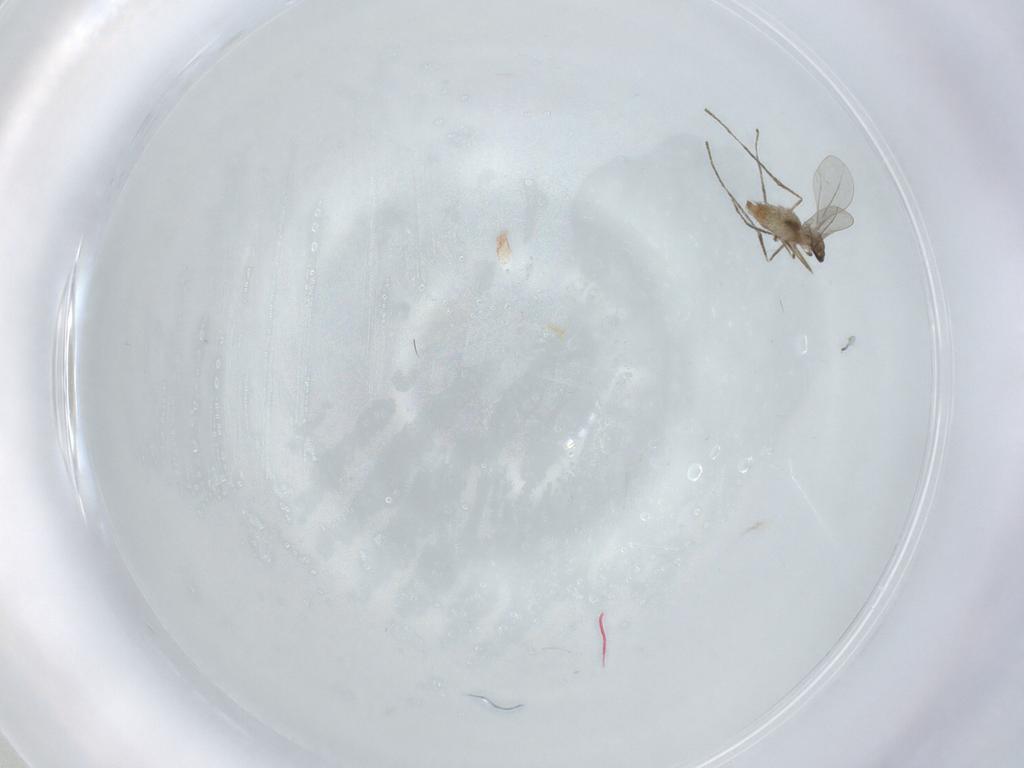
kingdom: Animalia
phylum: Arthropoda
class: Insecta
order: Diptera
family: Cecidomyiidae
